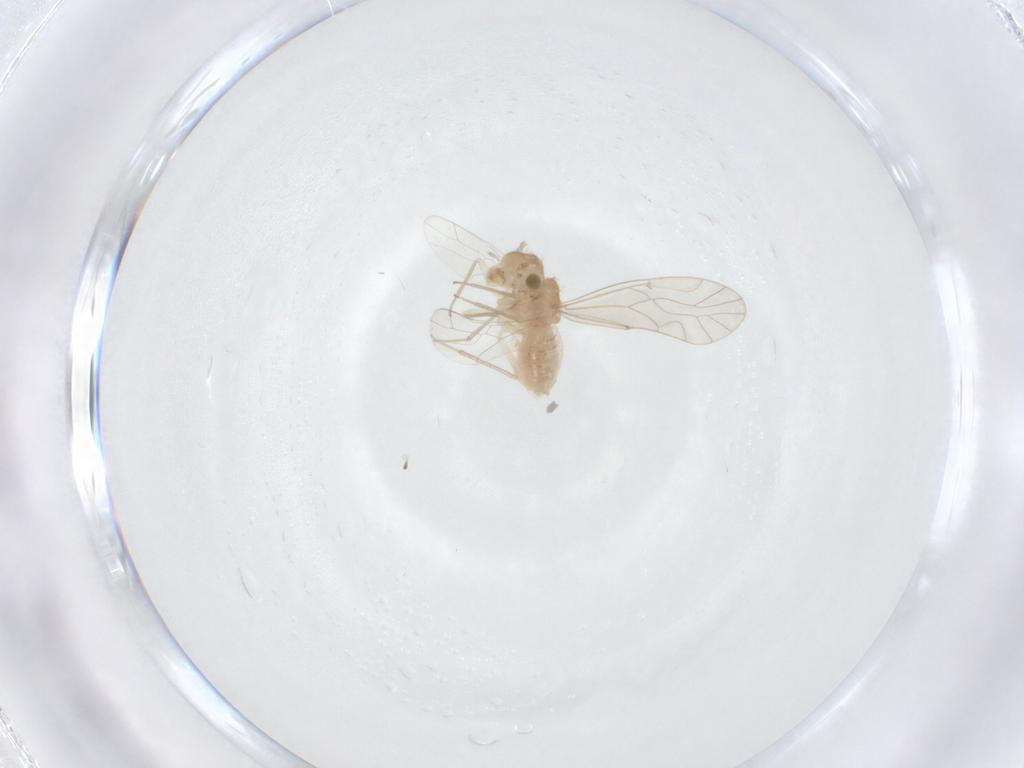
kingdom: Animalia
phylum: Arthropoda
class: Insecta
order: Psocodea
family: Lachesillidae
